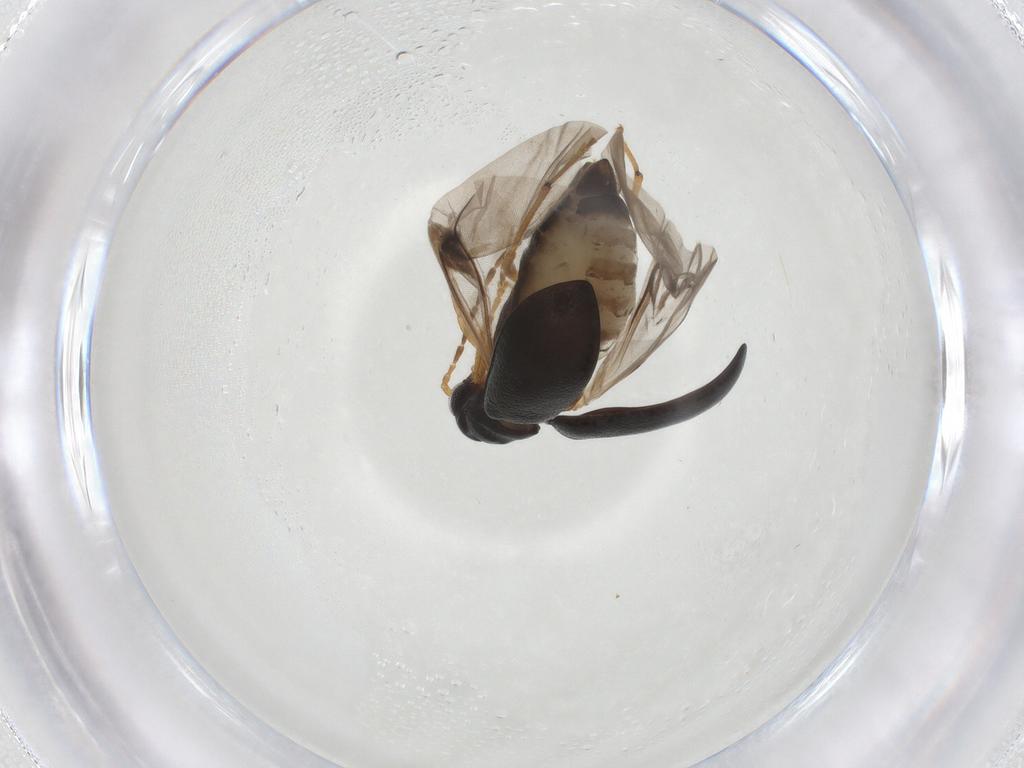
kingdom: Animalia
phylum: Arthropoda
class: Insecta
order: Coleoptera
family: Chrysomelidae
